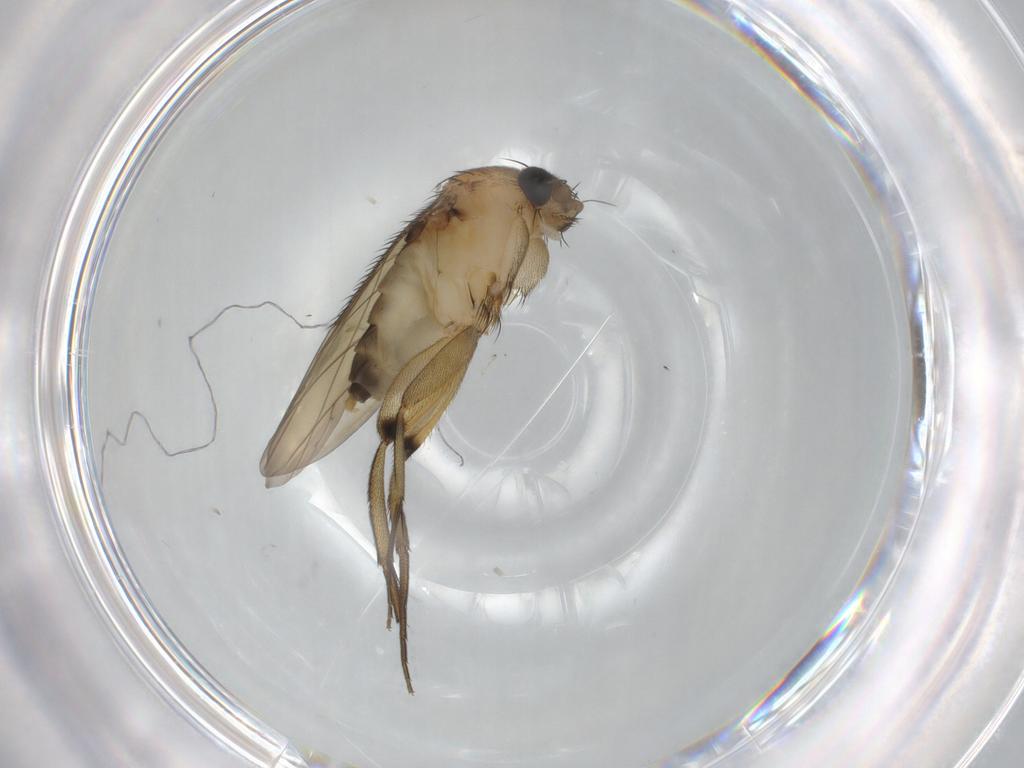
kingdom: Animalia
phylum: Arthropoda
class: Insecta
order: Diptera
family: Phoridae
